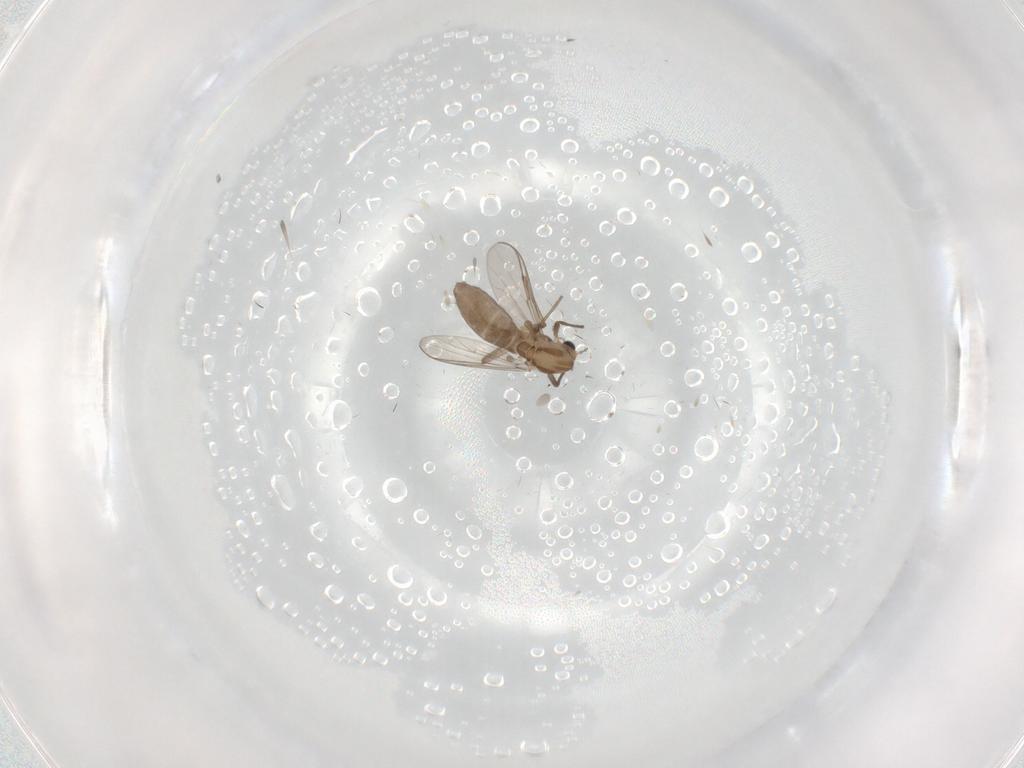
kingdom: Animalia
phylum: Arthropoda
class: Insecta
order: Diptera
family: Chironomidae
